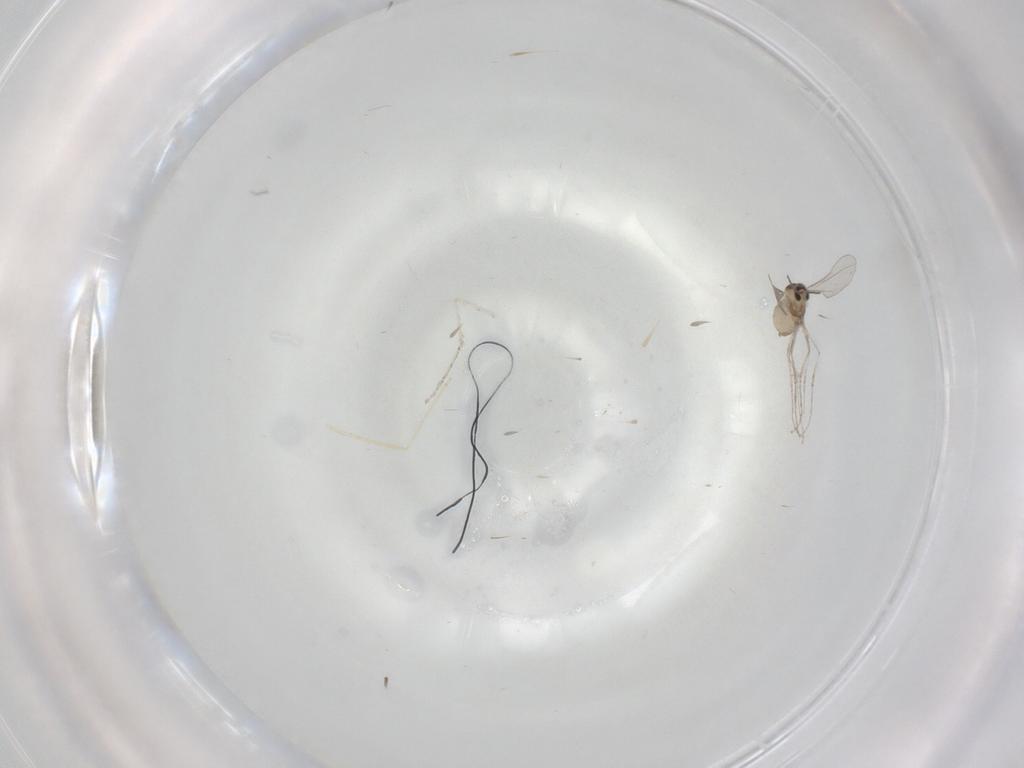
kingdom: Animalia
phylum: Arthropoda
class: Insecta
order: Diptera
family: Cecidomyiidae
